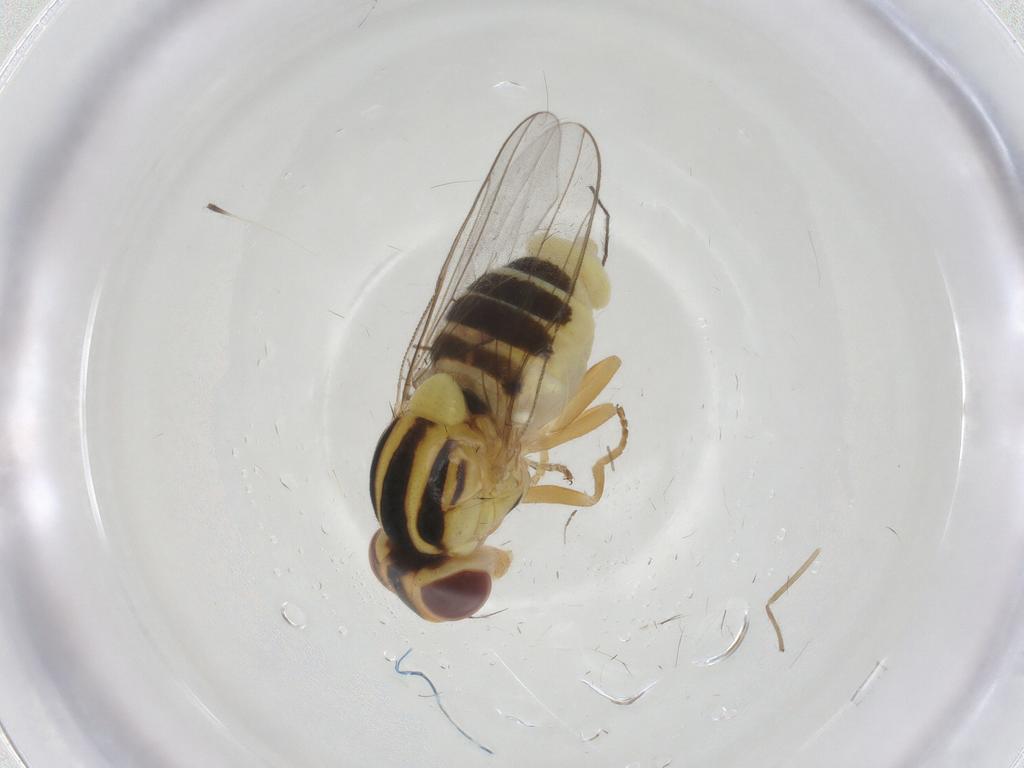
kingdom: Animalia
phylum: Arthropoda
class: Insecta
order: Diptera
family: Chloropidae
